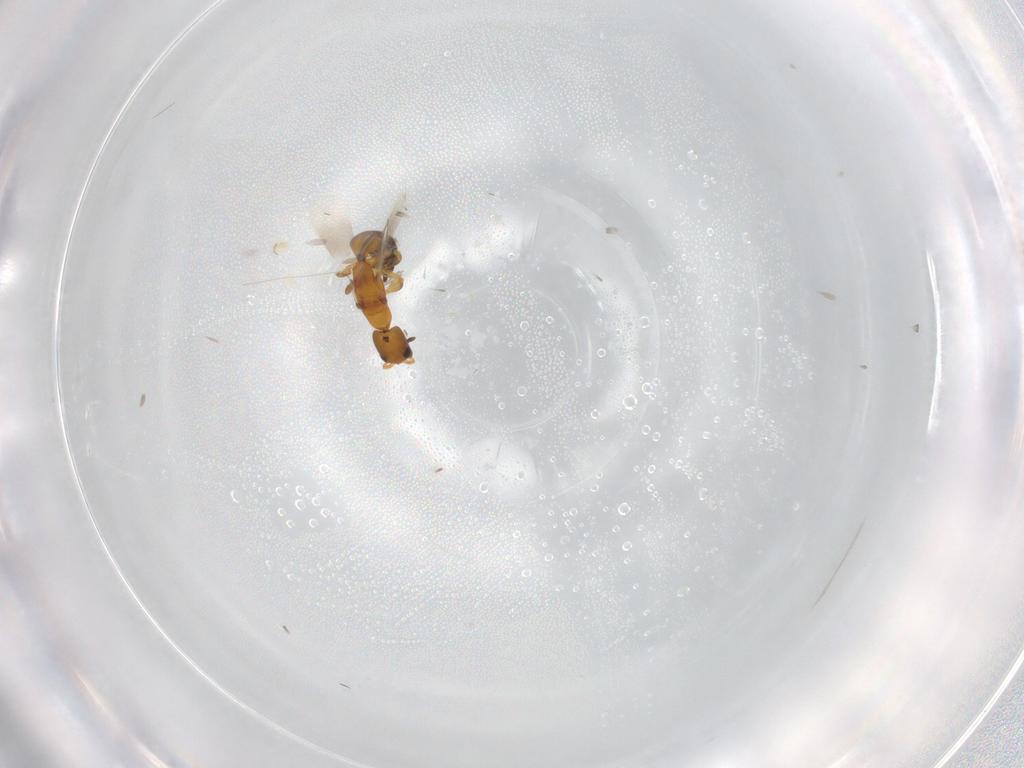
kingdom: Animalia
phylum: Arthropoda
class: Insecta
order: Hymenoptera
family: Bethylidae
